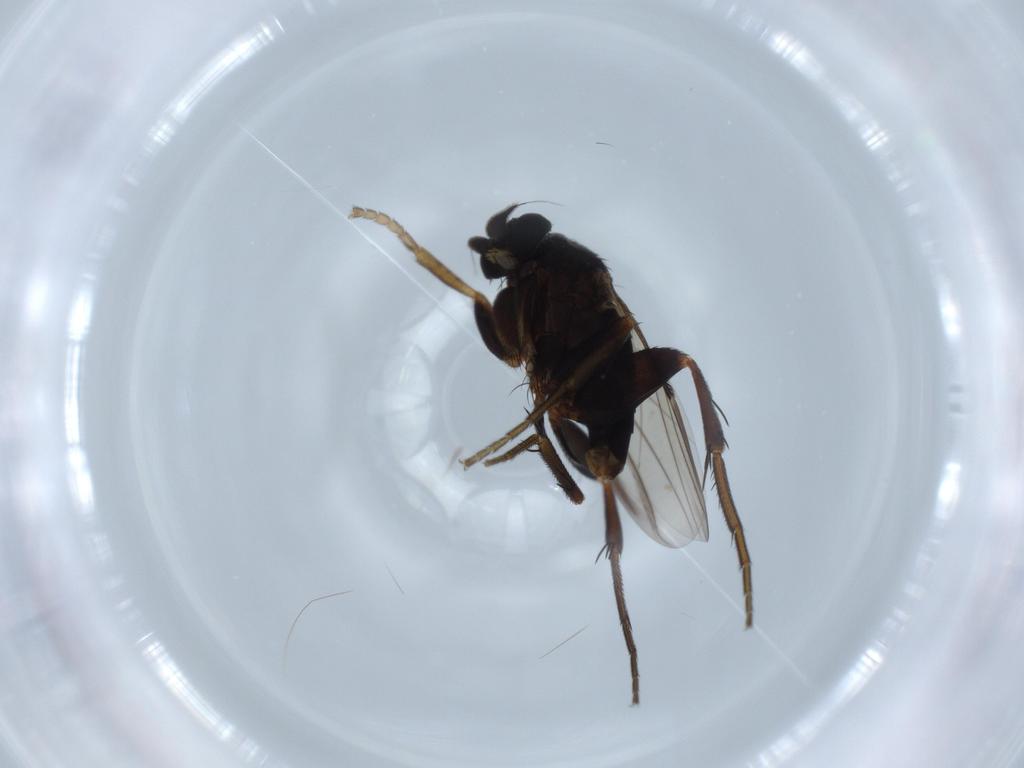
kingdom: Animalia
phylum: Arthropoda
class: Insecta
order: Diptera
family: Phoridae
